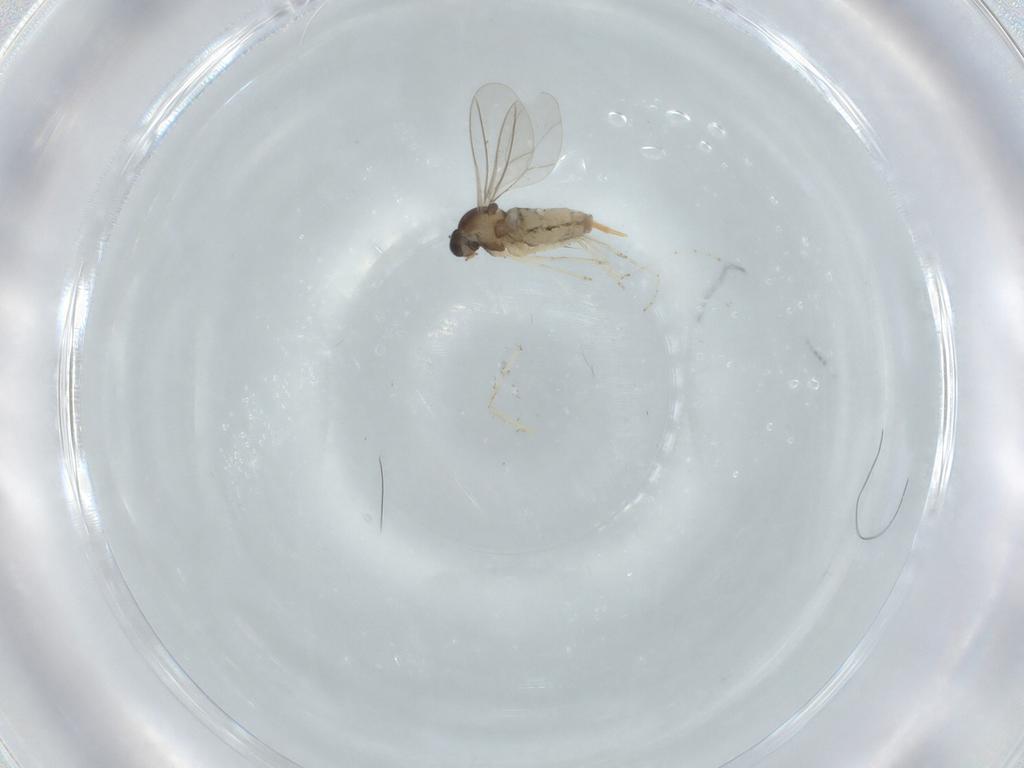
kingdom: Animalia
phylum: Arthropoda
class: Insecta
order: Diptera
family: Cecidomyiidae
